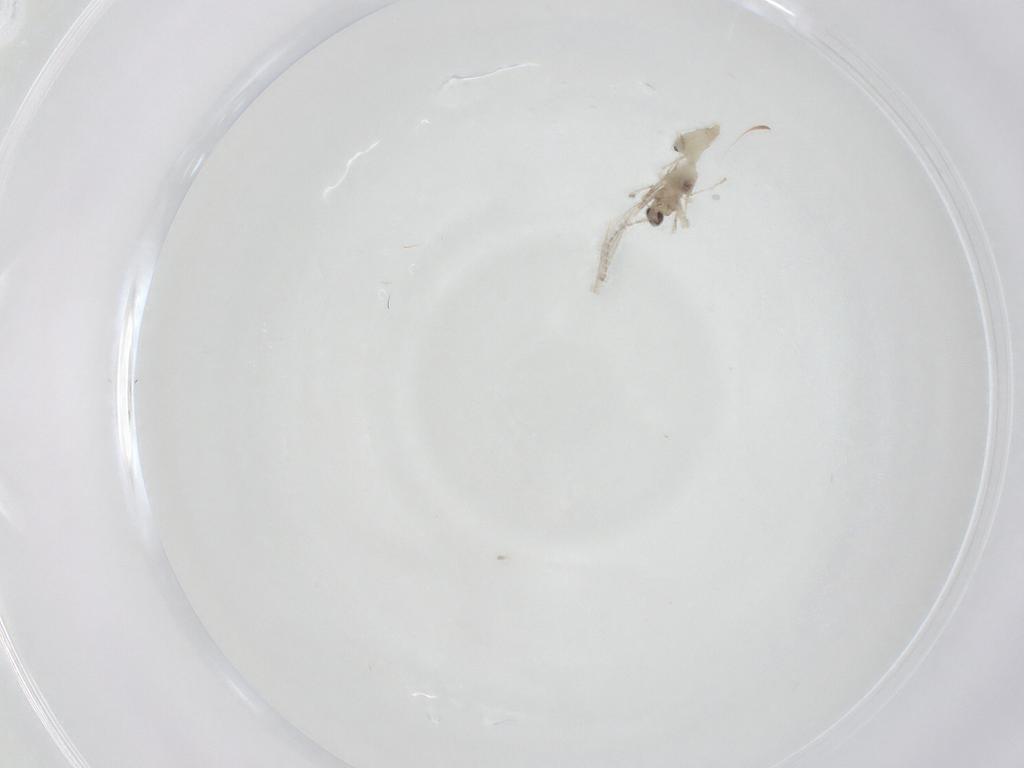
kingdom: Animalia
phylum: Arthropoda
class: Insecta
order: Diptera
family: Cecidomyiidae
